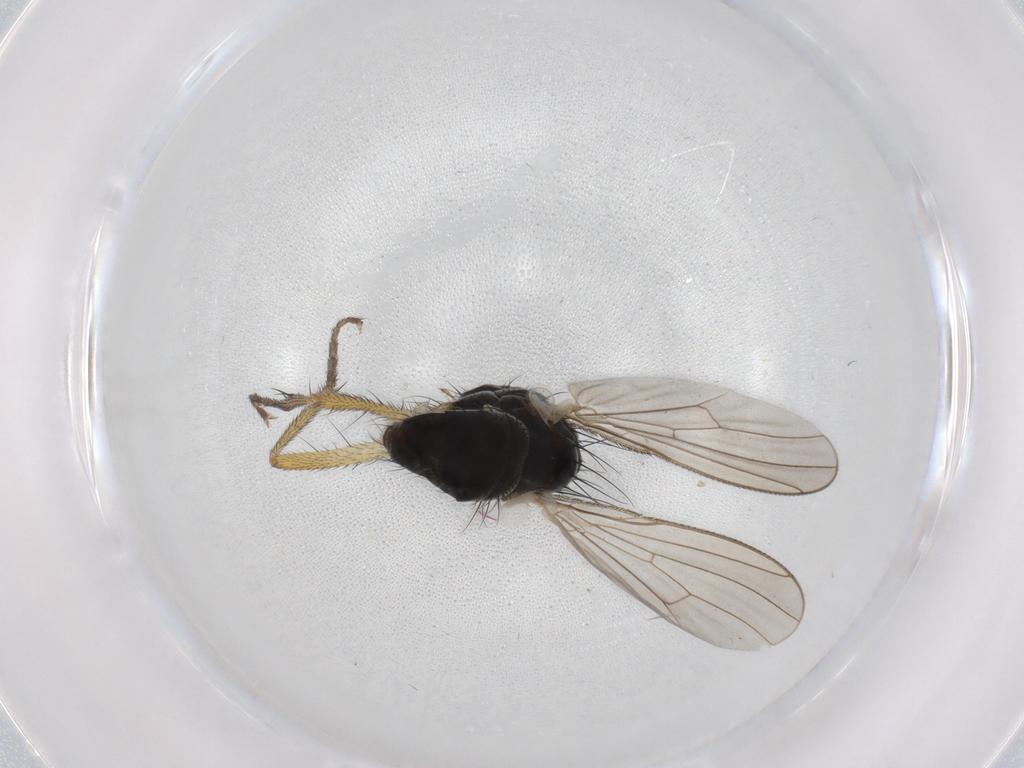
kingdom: Animalia
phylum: Arthropoda
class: Insecta
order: Diptera
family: Muscidae
